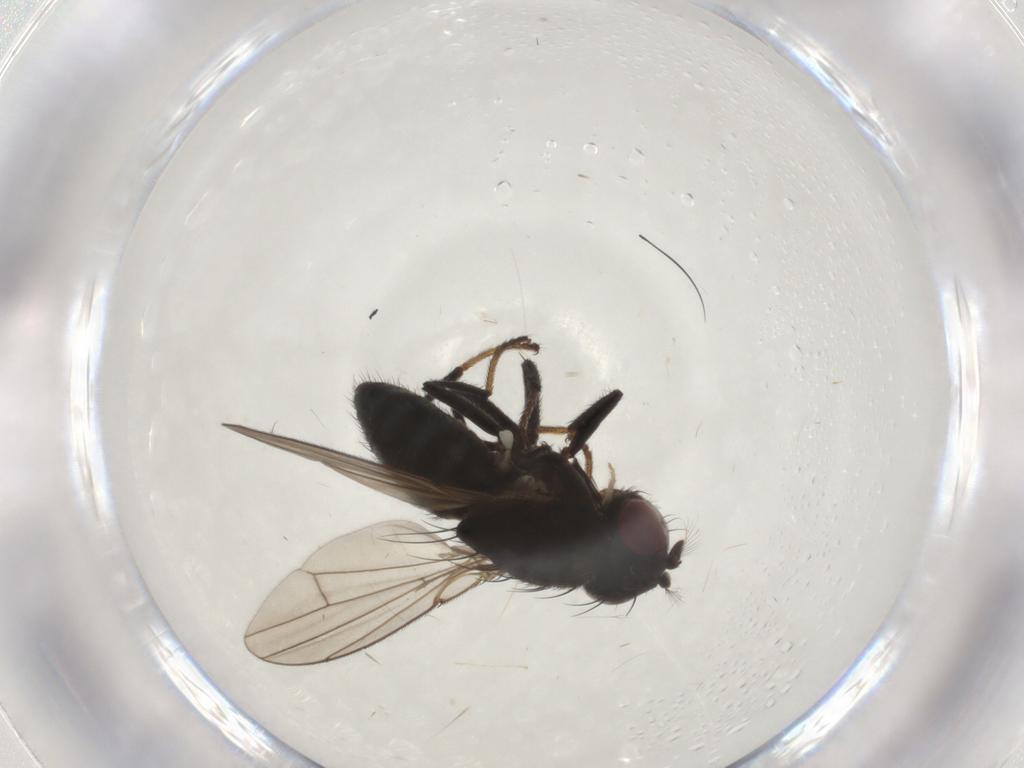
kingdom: Animalia
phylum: Arthropoda
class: Insecta
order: Diptera
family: Ephydridae
